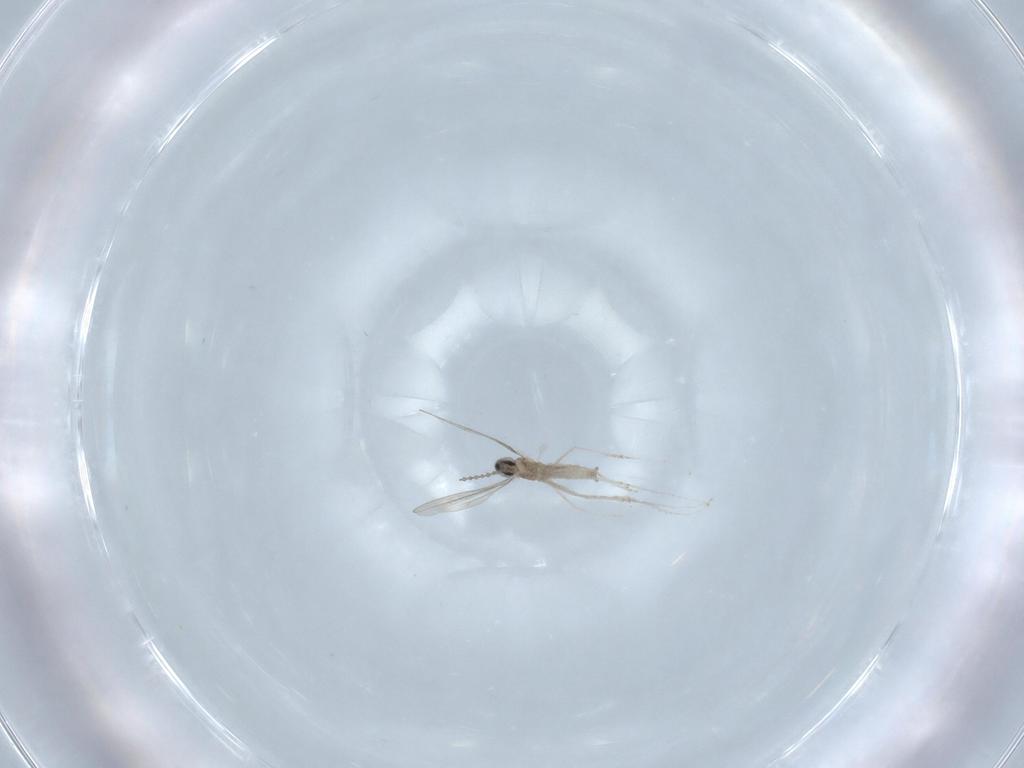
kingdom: Animalia
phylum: Arthropoda
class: Insecta
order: Diptera
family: Cecidomyiidae
